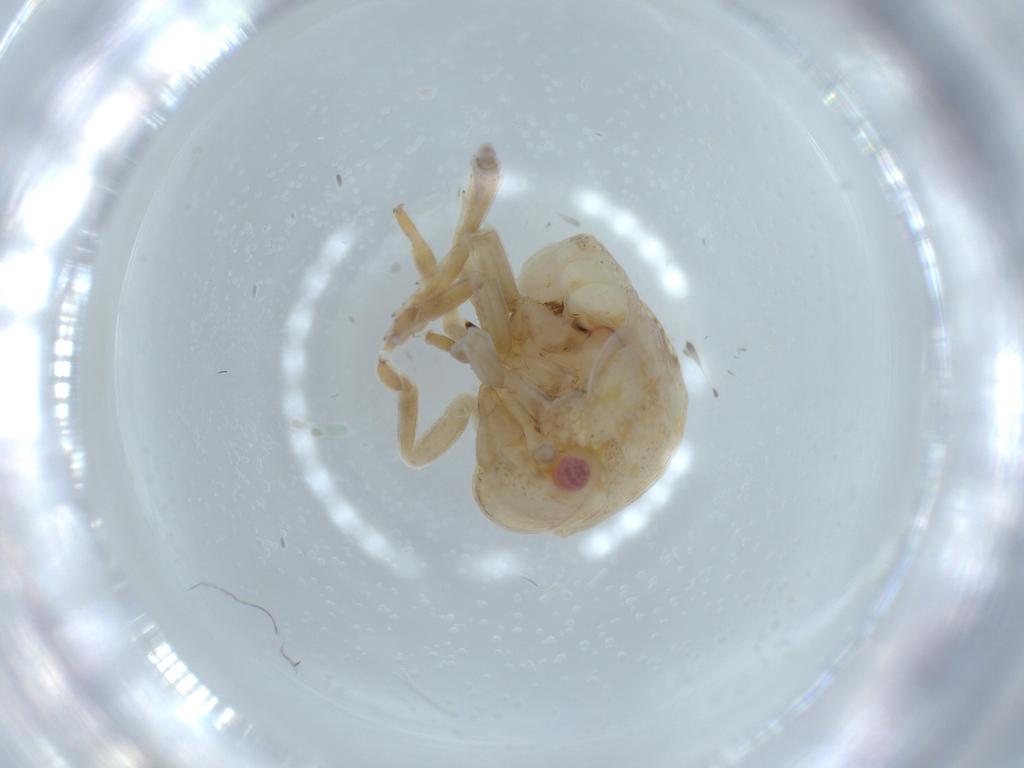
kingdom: Animalia
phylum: Arthropoda
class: Insecta
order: Hemiptera
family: Acanaloniidae
